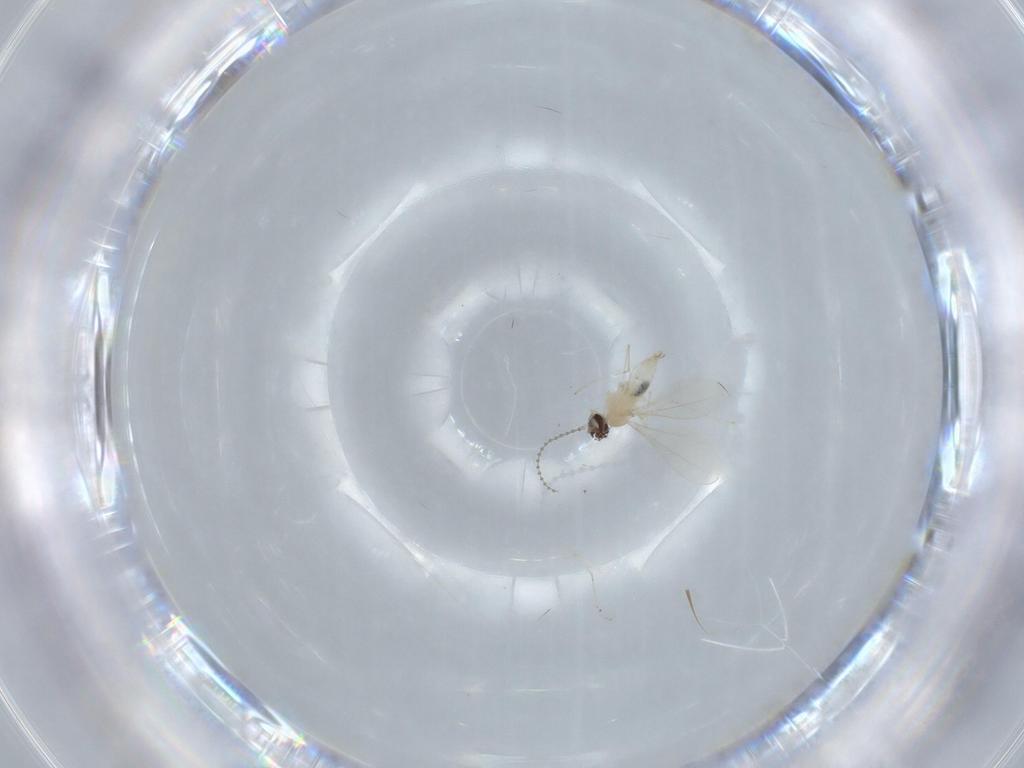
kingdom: Animalia
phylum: Arthropoda
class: Insecta
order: Diptera
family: Cecidomyiidae
